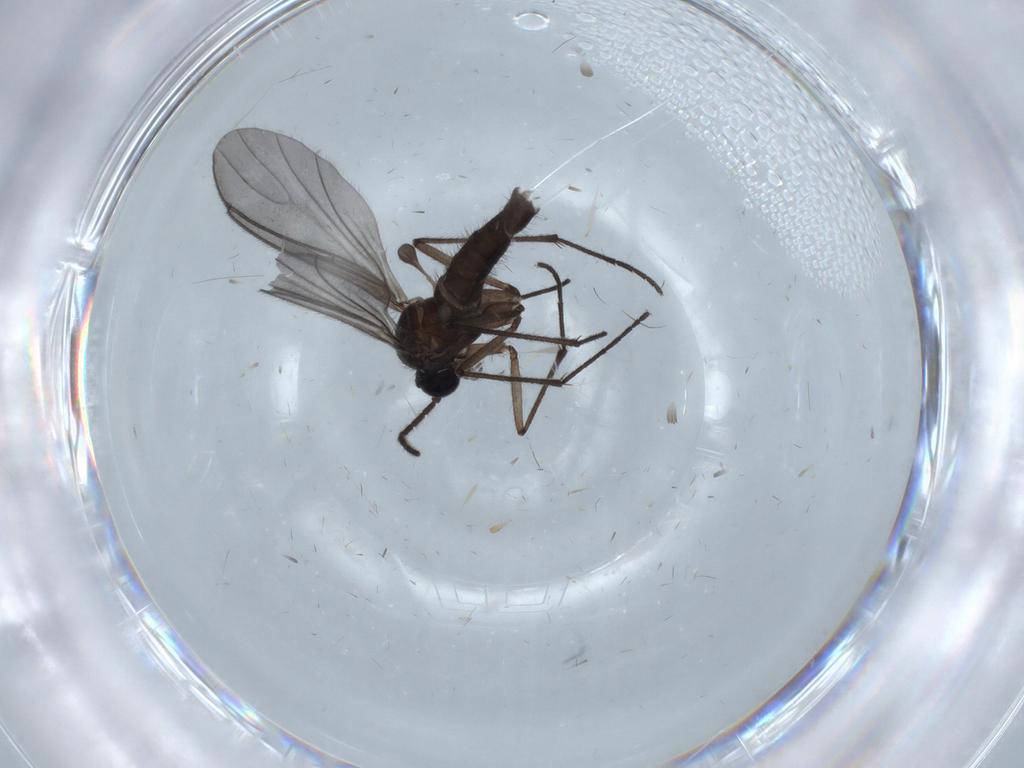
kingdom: Animalia
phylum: Arthropoda
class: Insecta
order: Diptera
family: Sciaridae
